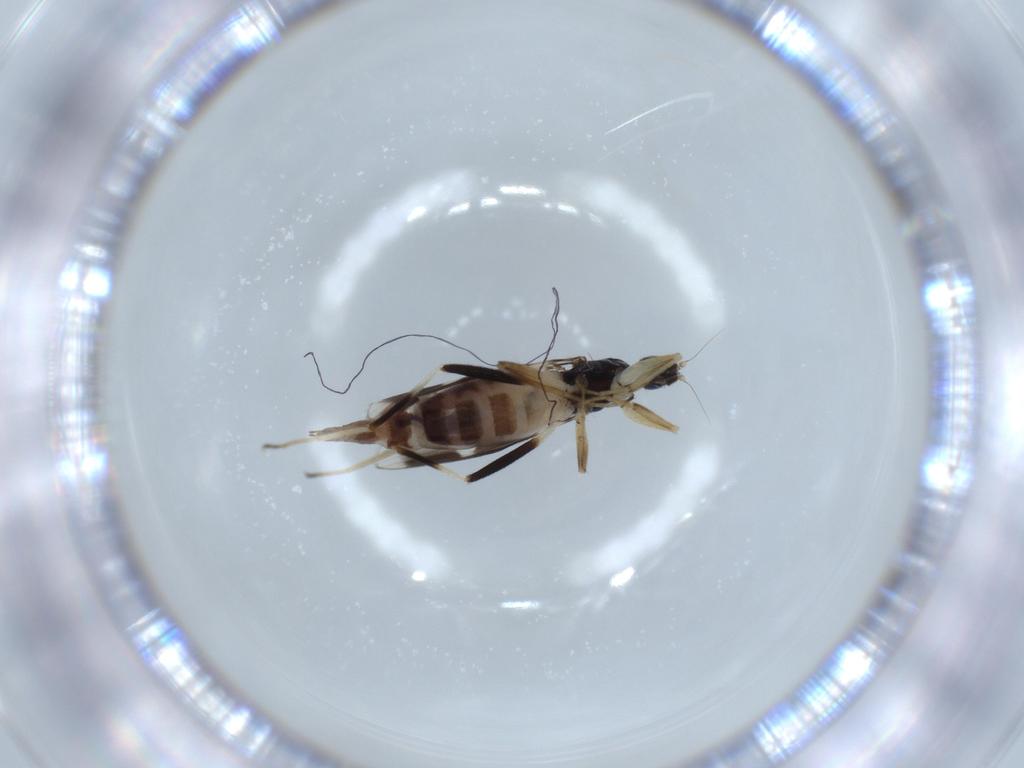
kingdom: Animalia
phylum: Arthropoda
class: Insecta
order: Diptera
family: Hybotidae
